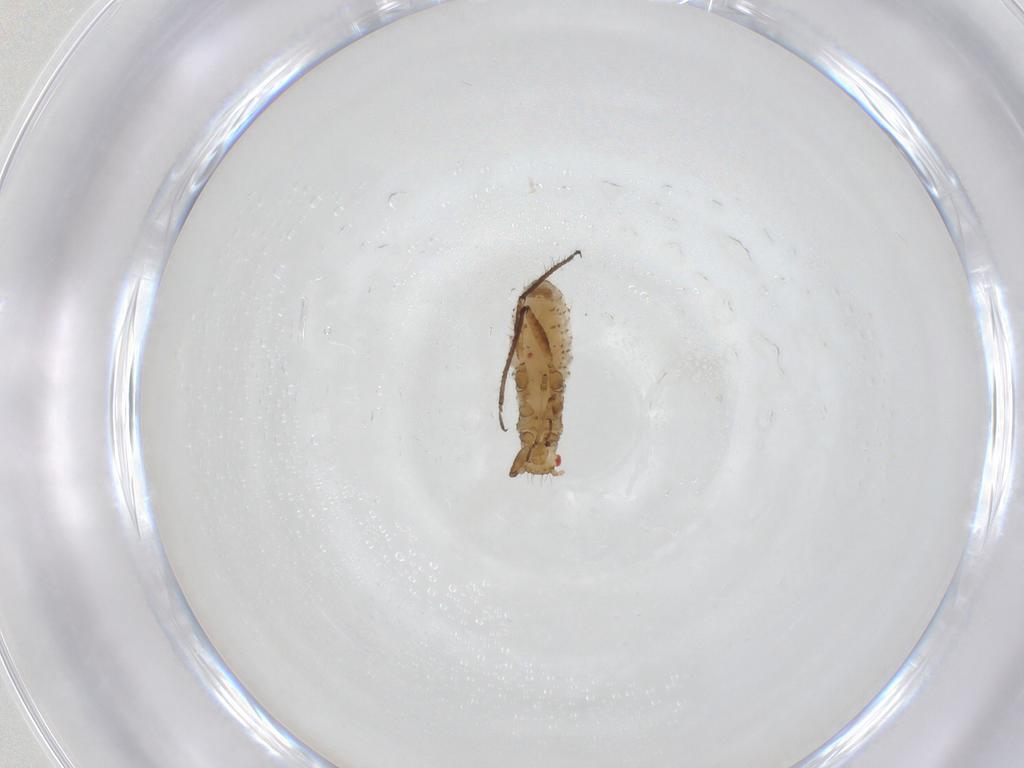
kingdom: Animalia
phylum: Arthropoda
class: Insecta
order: Hemiptera
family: Aphididae
